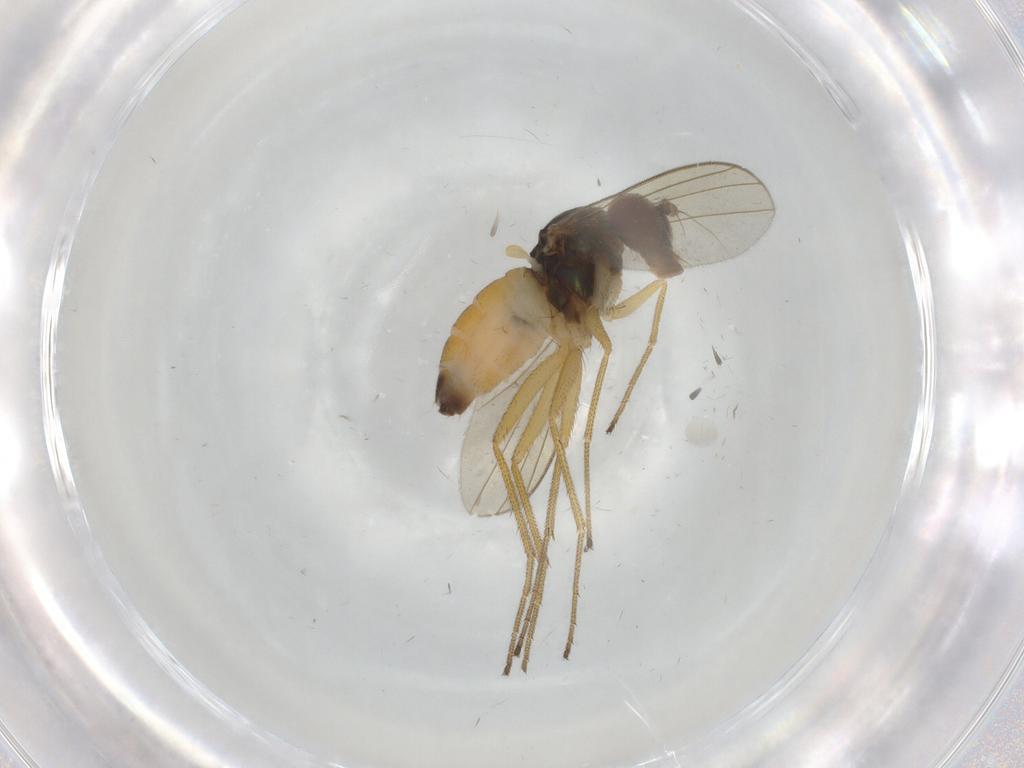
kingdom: Animalia
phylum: Arthropoda
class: Insecta
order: Diptera
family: Dolichopodidae
